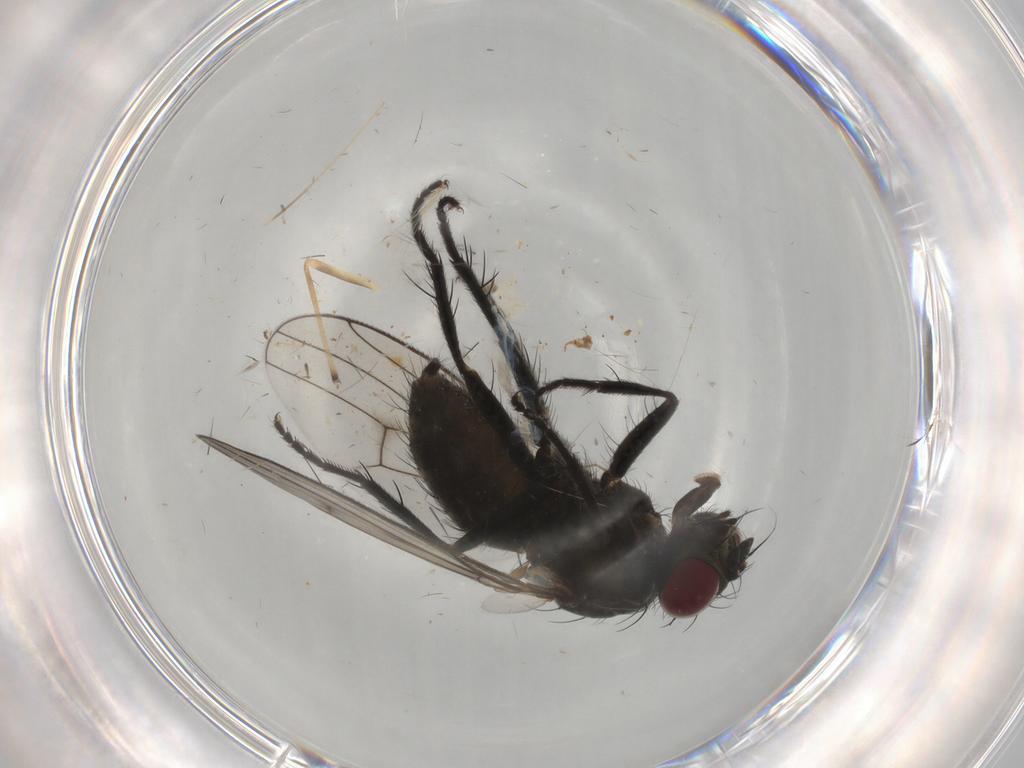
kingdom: Animalia
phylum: Arthropoda
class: Insecta
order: Diptera
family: Muscidae
